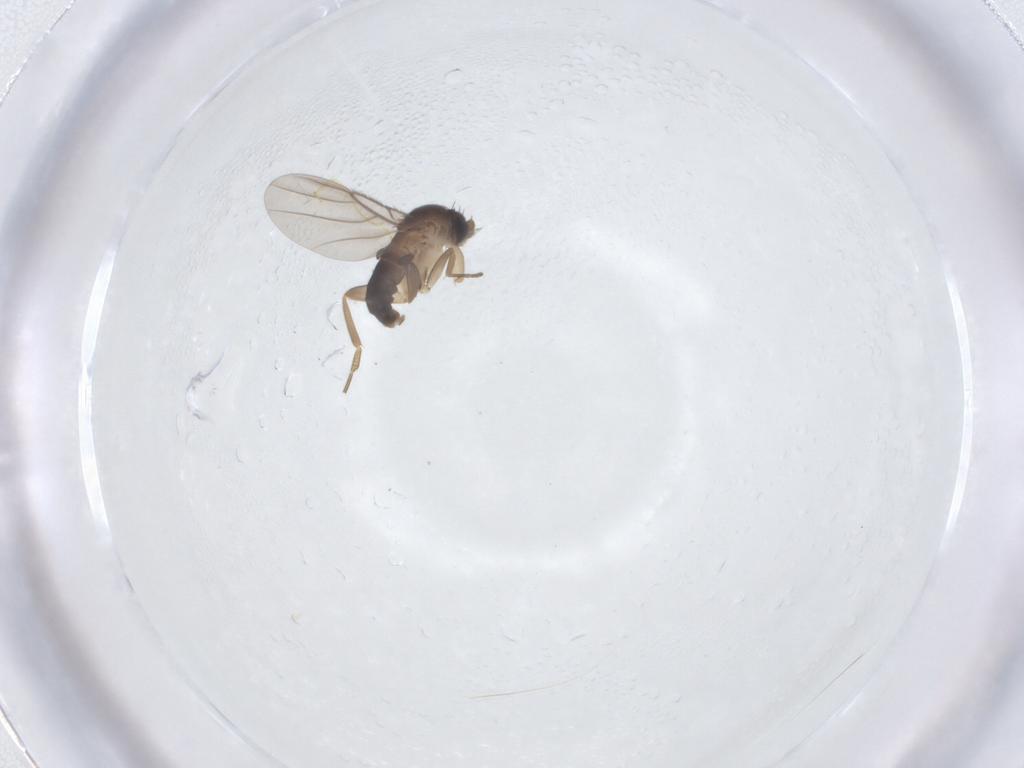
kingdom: Animalia
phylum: Arthropoda
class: Insecta
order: Diptera
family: Phoridae
